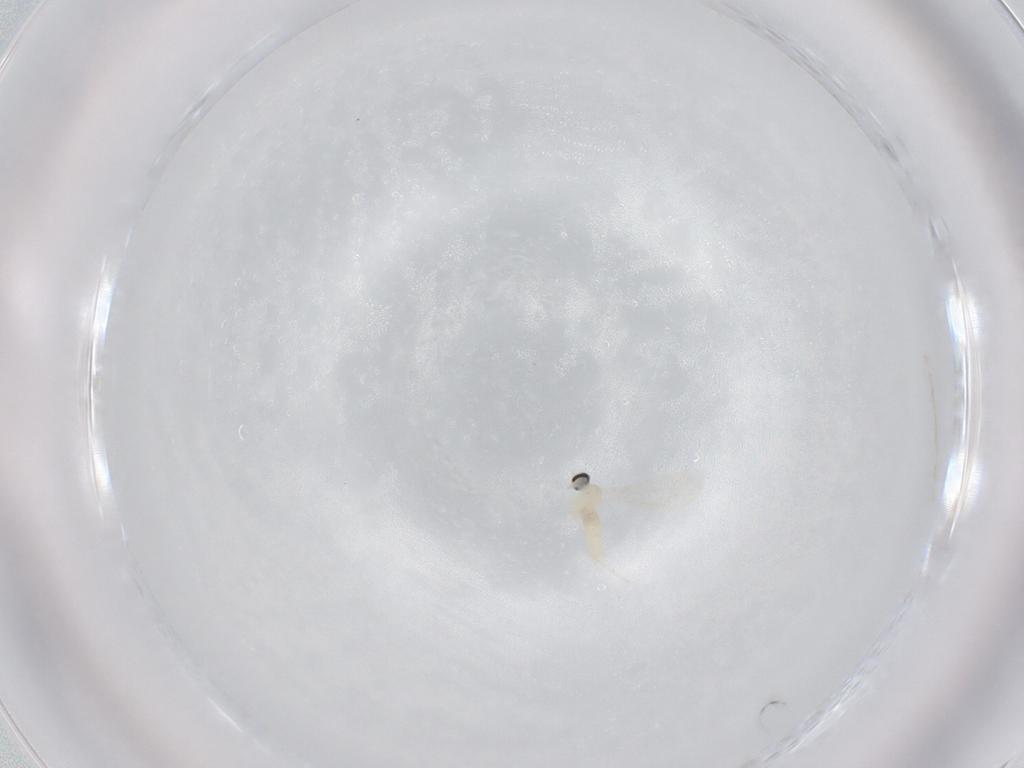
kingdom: Animalia
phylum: Arthropoda
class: Insecta
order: Diptera
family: Cecidomyiidae
